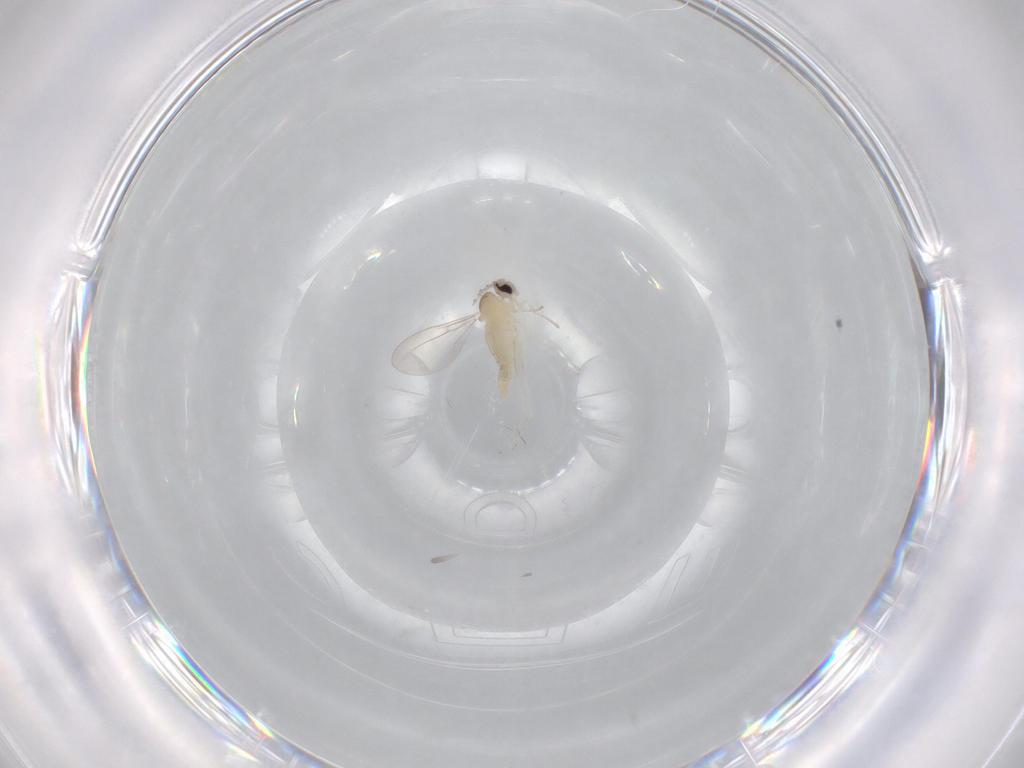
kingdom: Animalia
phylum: Arthropoda
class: Insecta
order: Diptera
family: Cecidomyiidae
